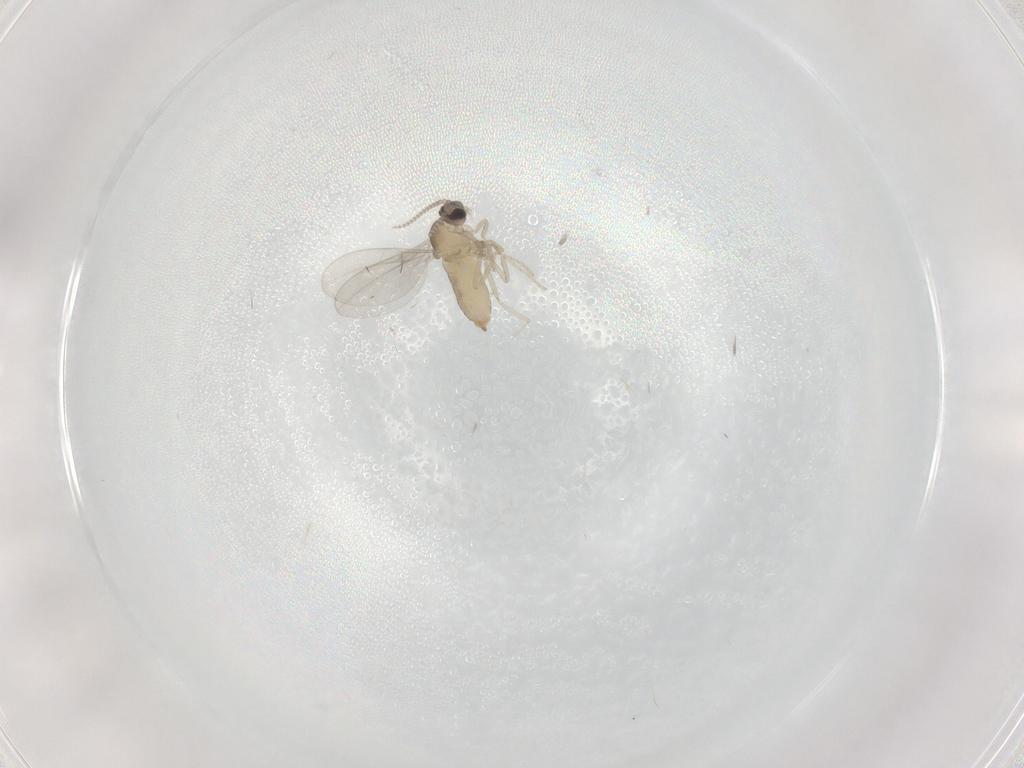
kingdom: Animalia
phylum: Arthropoda
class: Insecta
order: Diptera
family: Cecidomyiidae
